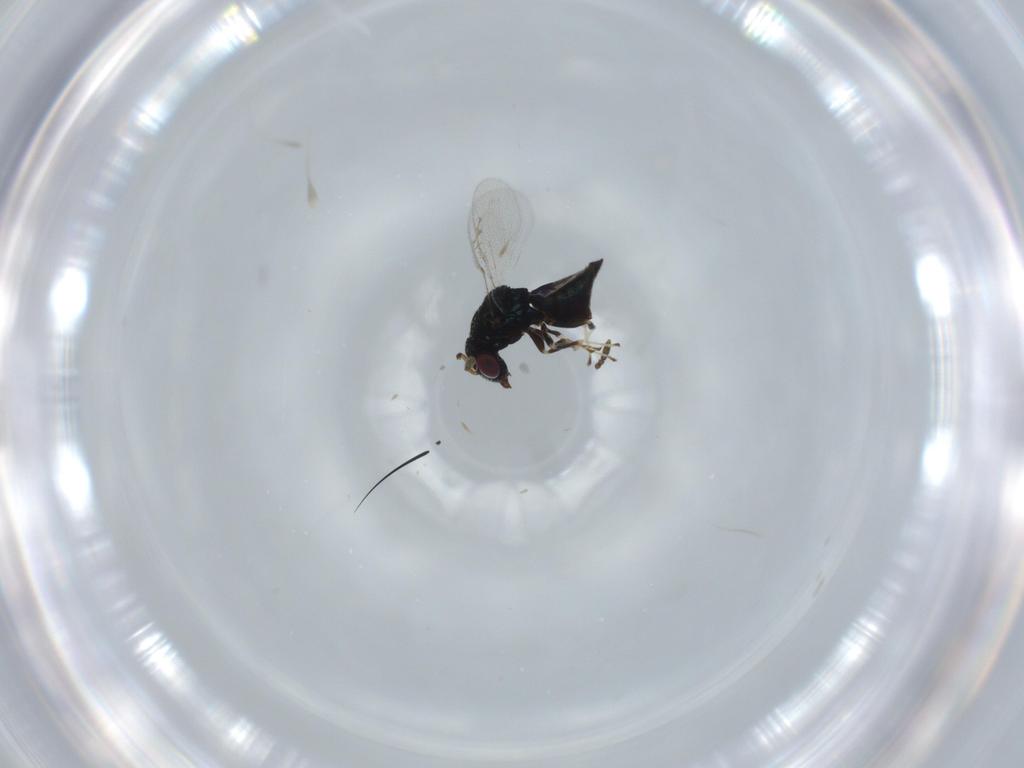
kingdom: Animalia
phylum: Arthropoda
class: Insecta
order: Hymenoptera
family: Pteromalidae
